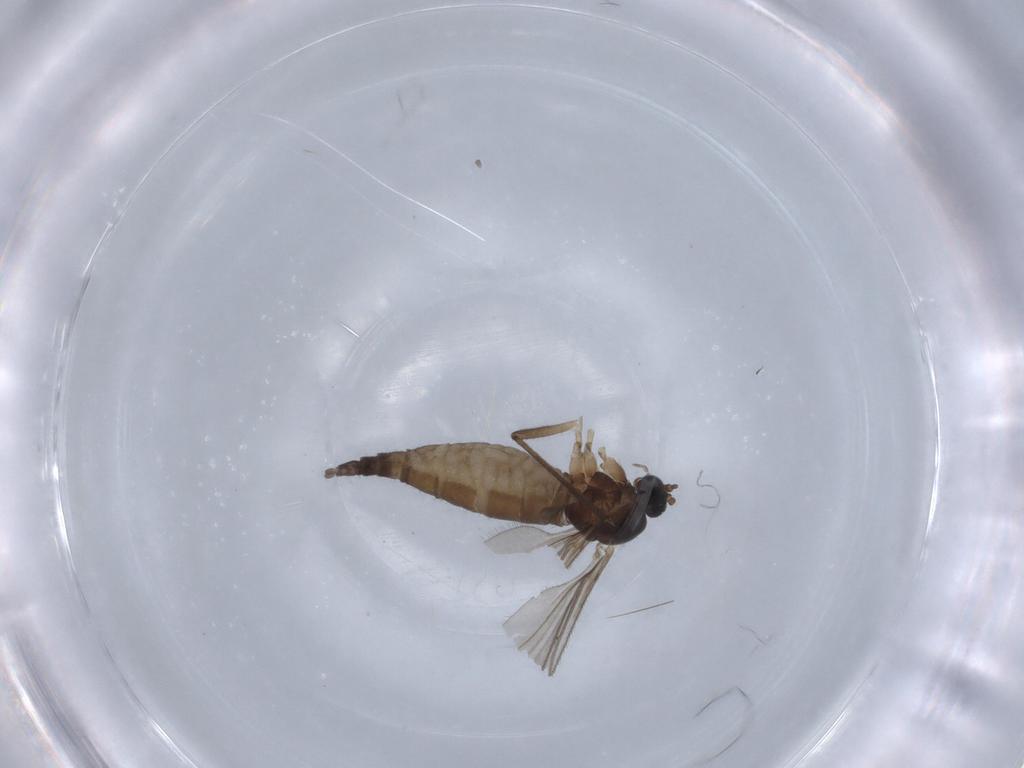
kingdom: Animalia
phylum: Arthropoda
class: Insecta
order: Diptera
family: Sciaridae
